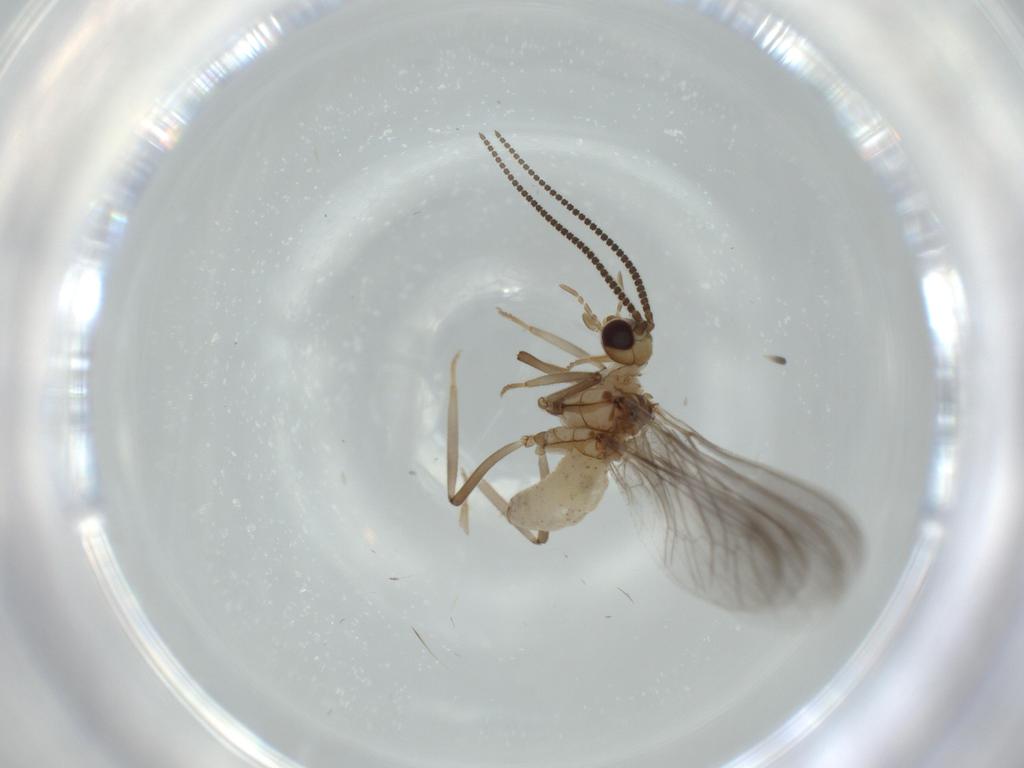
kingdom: Animalia
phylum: Arthropoda
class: Insecta
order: Neuroptera
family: Coniopterygidae
